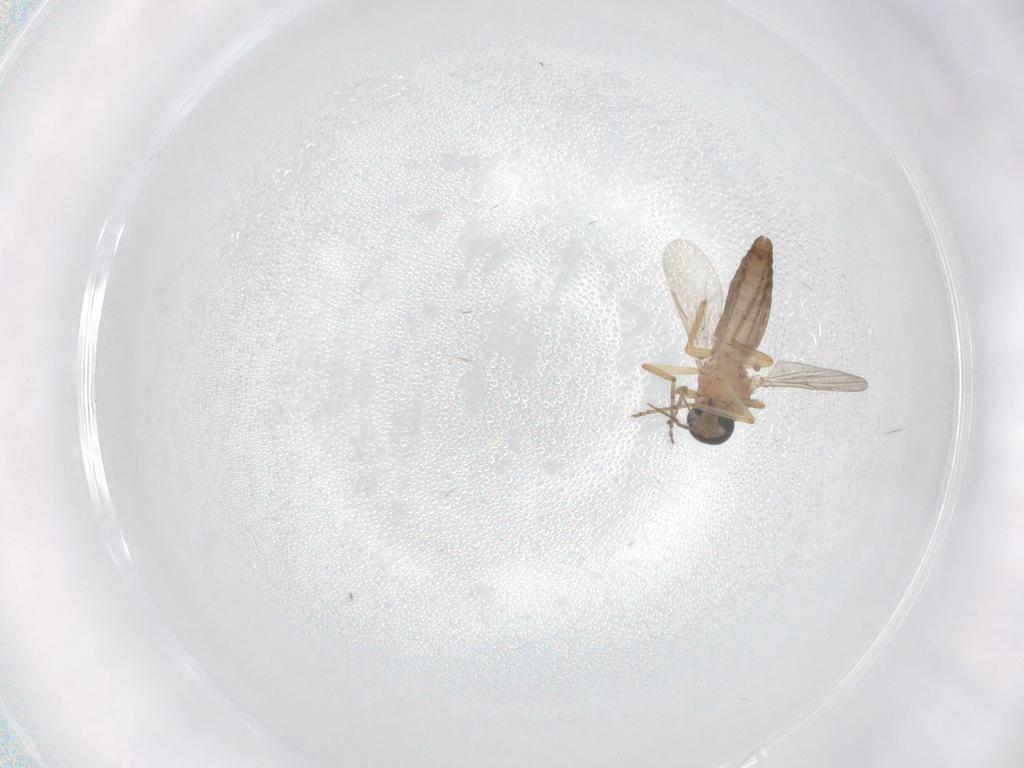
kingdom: Animalia
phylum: Arthropoda
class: Insecta
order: Diptera
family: Ceratopogonidae
